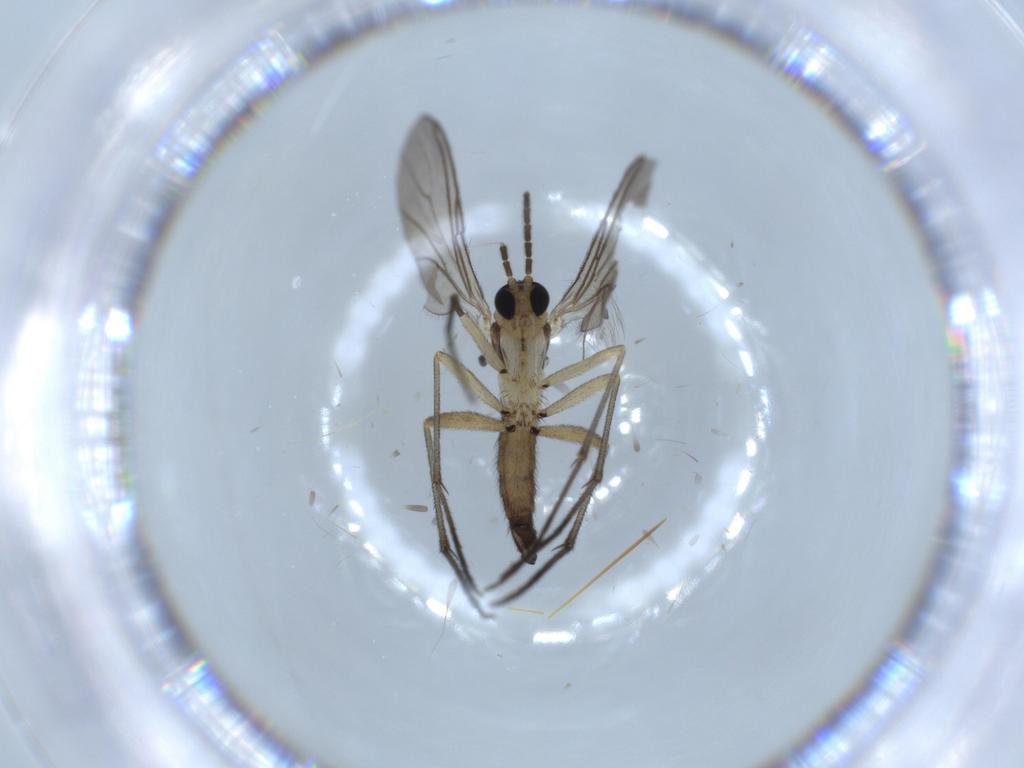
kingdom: Animalia
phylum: Arthropoda
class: Insecta
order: Diptera
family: Sciaridae
